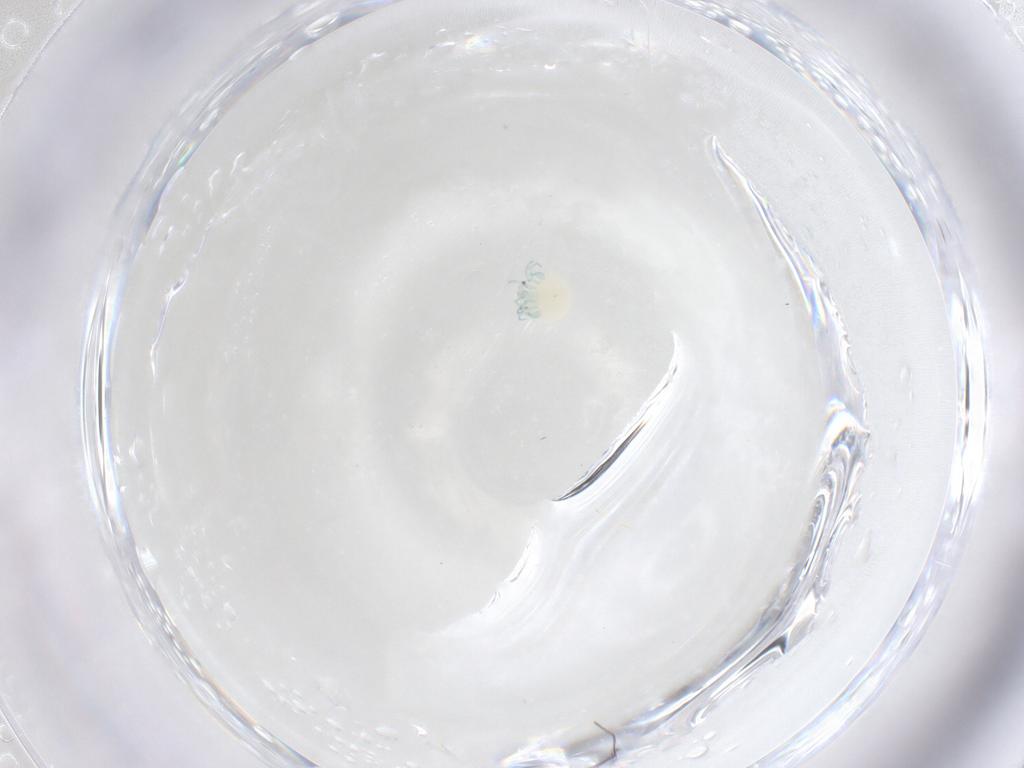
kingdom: Animalia
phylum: Arthropoda
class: Arachnida
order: Trombidiformes
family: Arrenuridae
